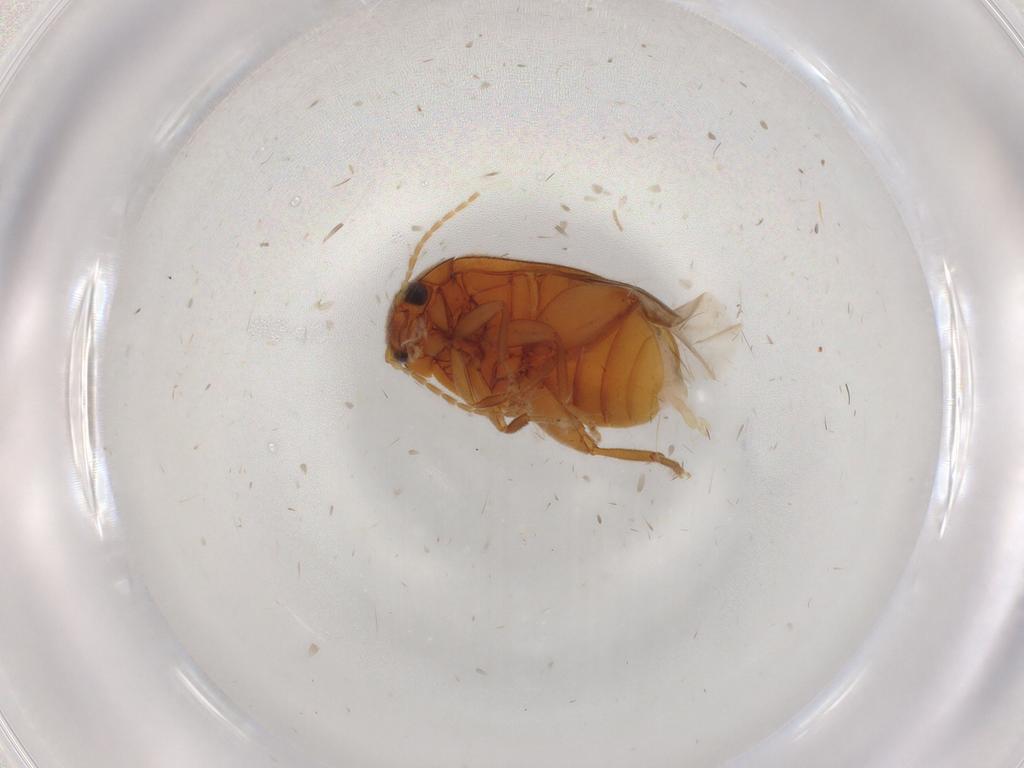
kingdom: Animalia
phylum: Arthropoda
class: Insecta
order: Coleoptera
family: Scirtidae
